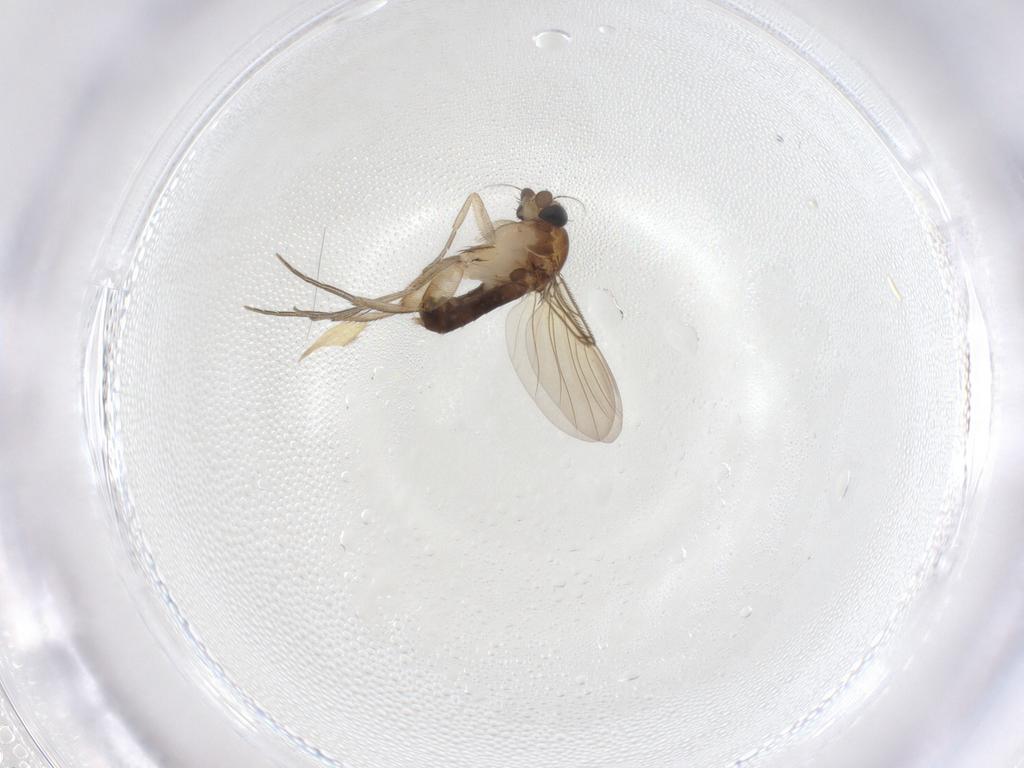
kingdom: Animalia
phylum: Arthropoda
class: Insecta
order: Diptera
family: Phoridae
